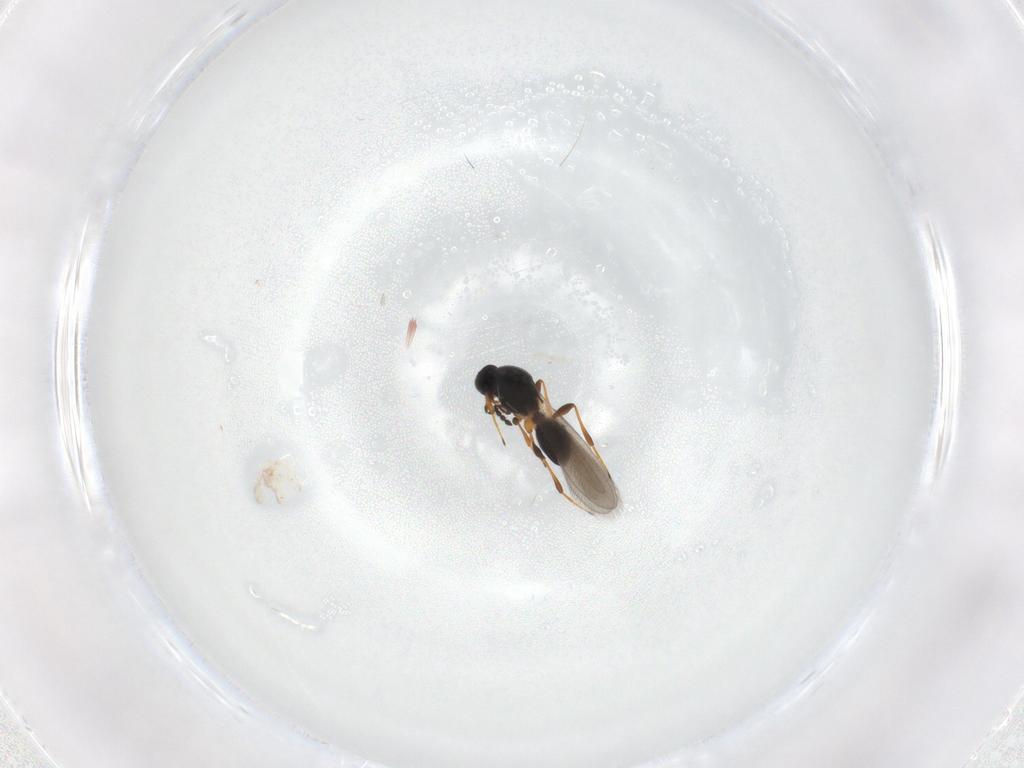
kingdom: Animalia
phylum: Arthropoda
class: Insecta
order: Hymenoptera
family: Platygastridae
